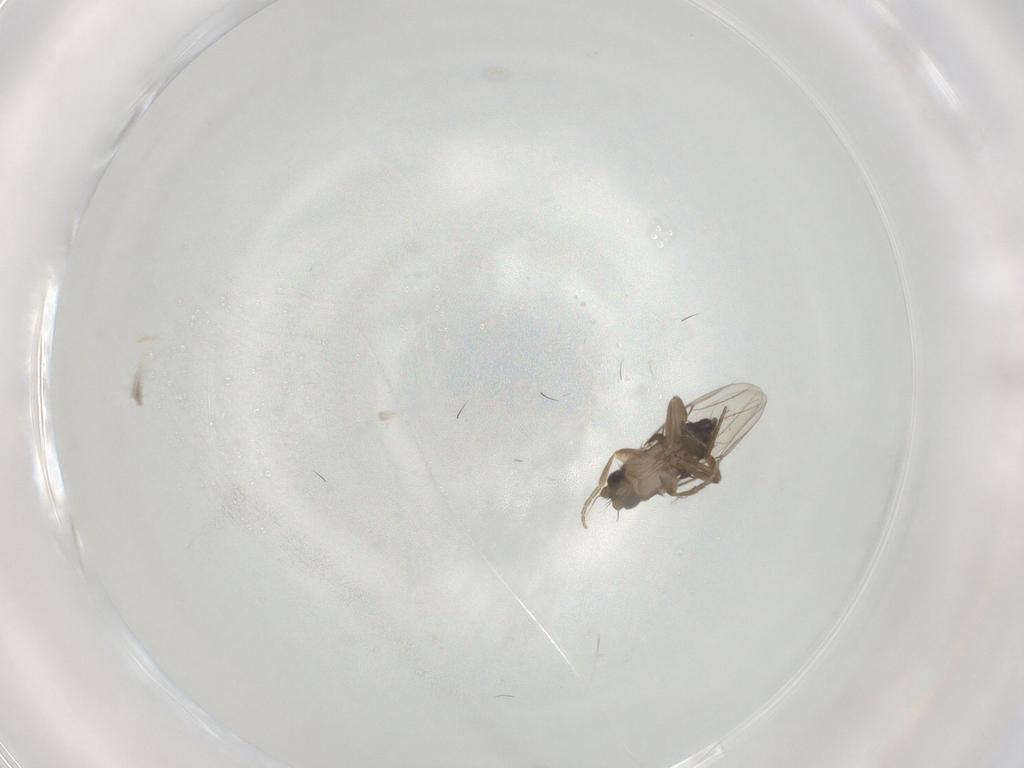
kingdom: Animalia
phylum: Arthropoda
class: Insecta
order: Diptera
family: Phoridae
